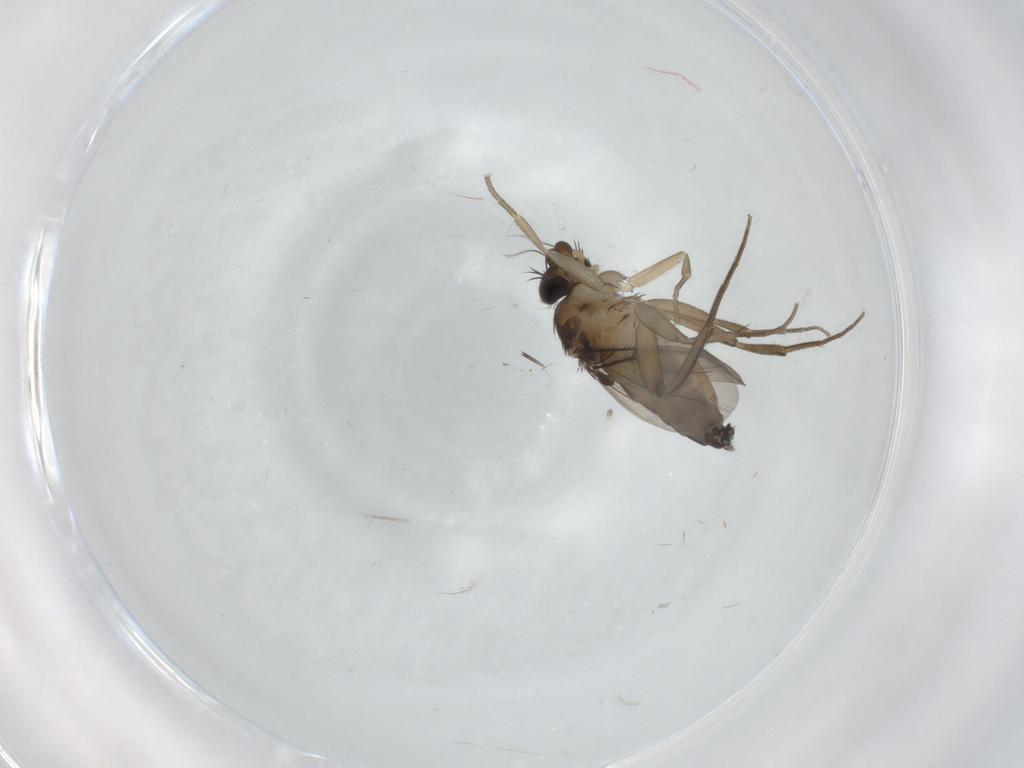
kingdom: Animalia
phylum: Arthropoda
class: Insecta
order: Diptera
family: Phoridae
